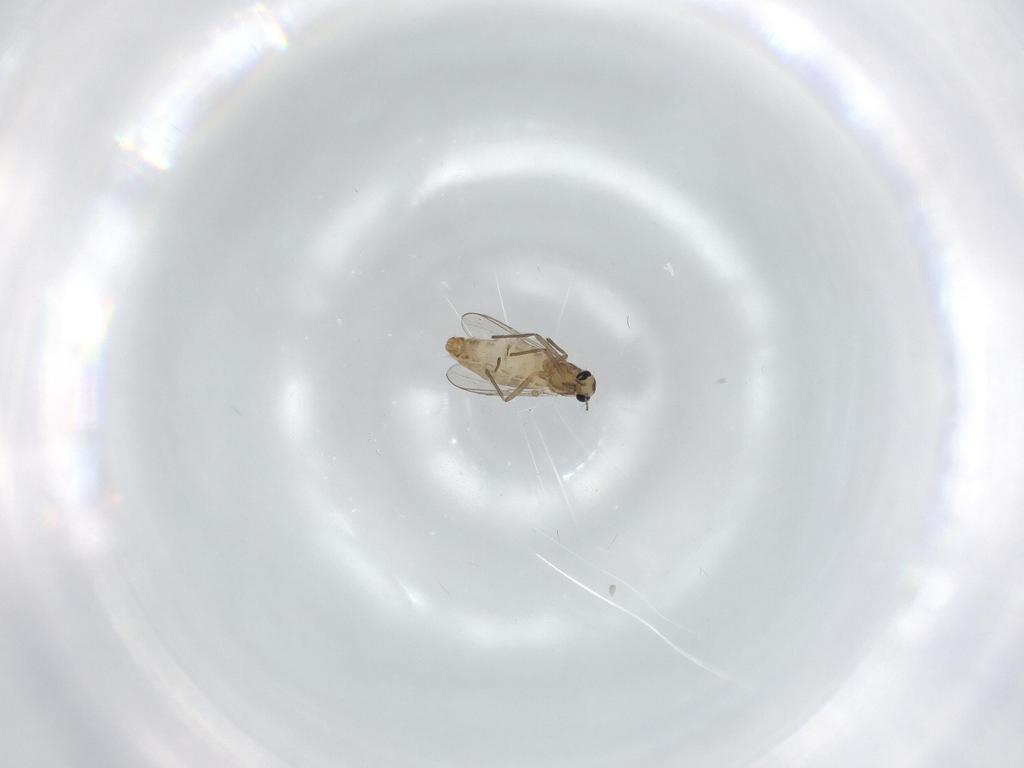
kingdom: Animalia
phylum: Arthropoda
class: Insecta
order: Diptera
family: Chironomidae
